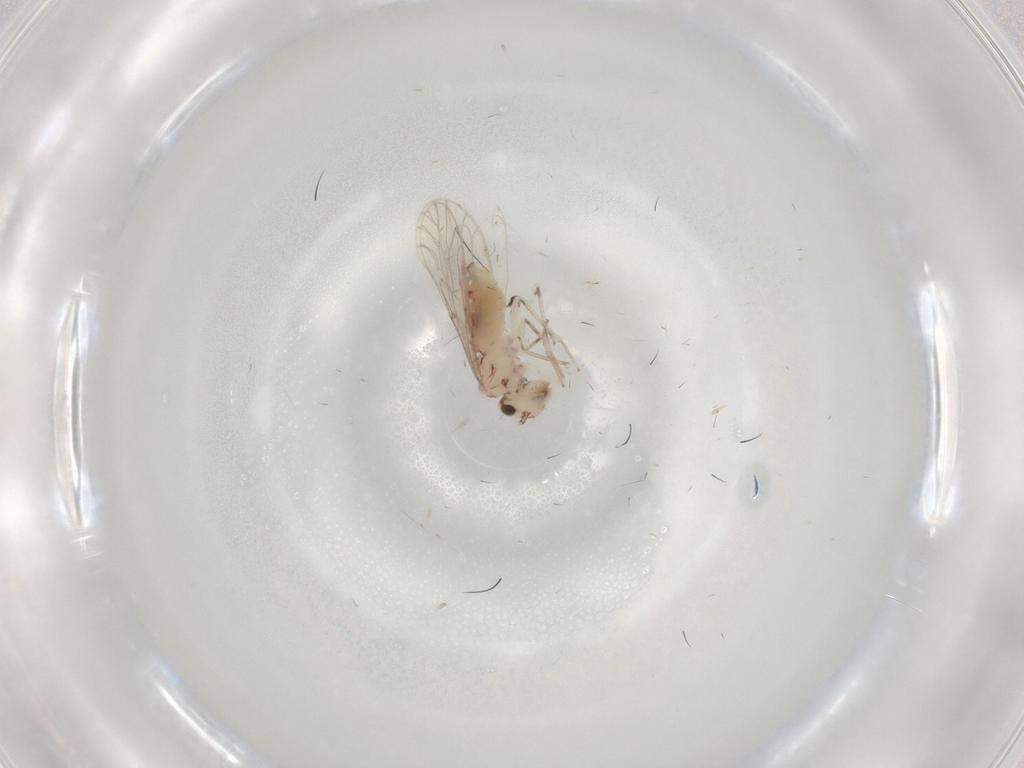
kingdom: Animalia
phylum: Arthropoda
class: Insecta
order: Psocodea
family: Caeciliusidae
